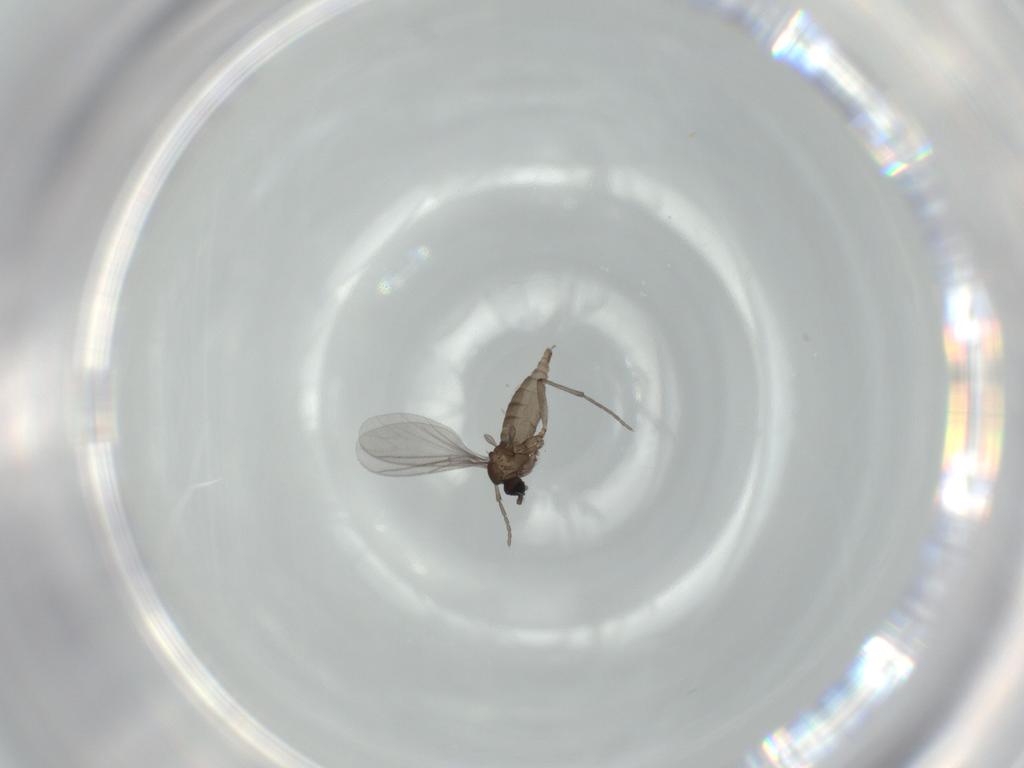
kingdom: Animalia
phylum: Arthropoda
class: Insecta
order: Diptera
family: Sciaridae
